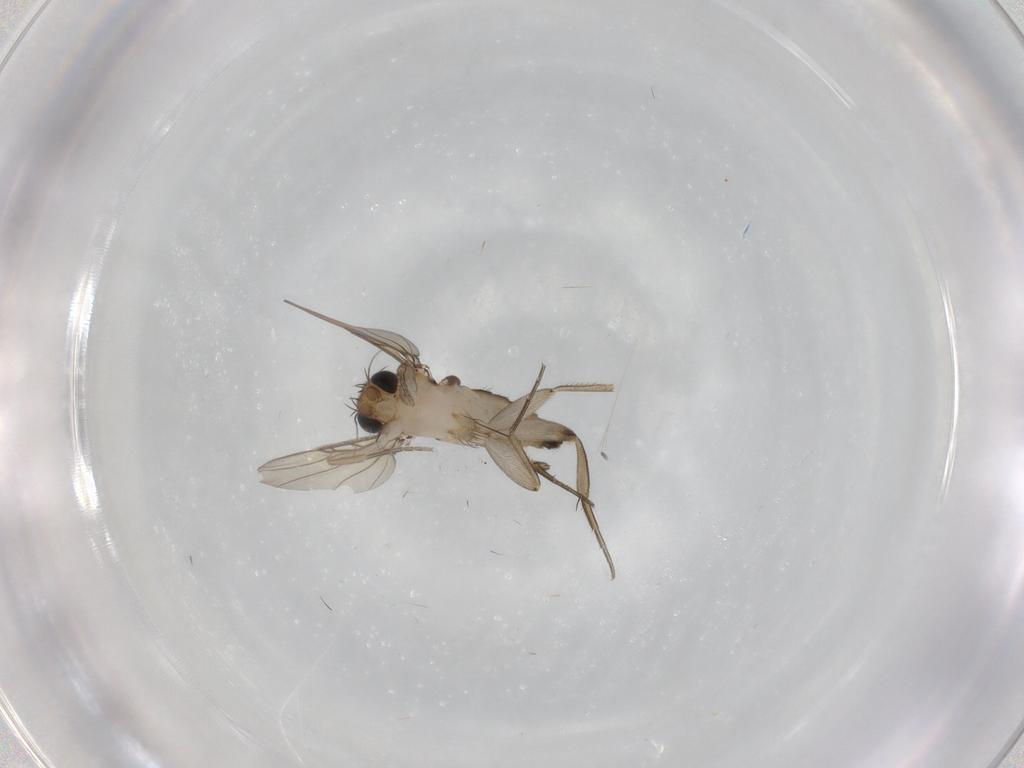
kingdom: Animalia
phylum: Arthropoda
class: Insecta
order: Diptera
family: Phoridae
